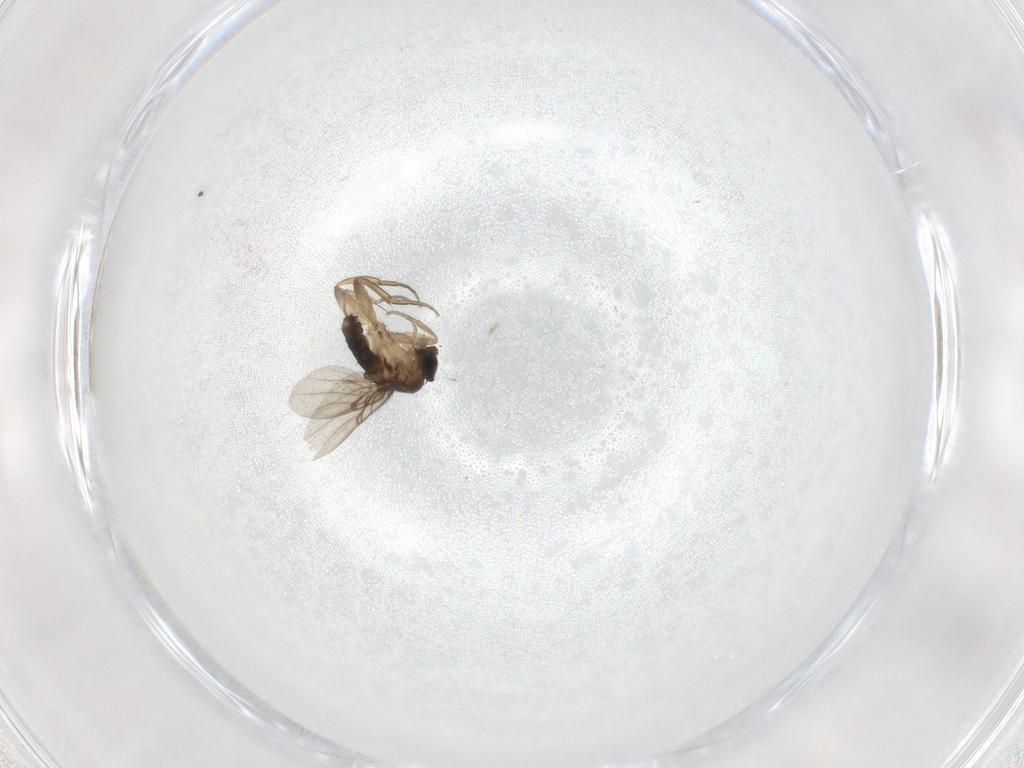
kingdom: Animalia
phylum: Arthropoda
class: Insecta
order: Diptera
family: Phoridae
